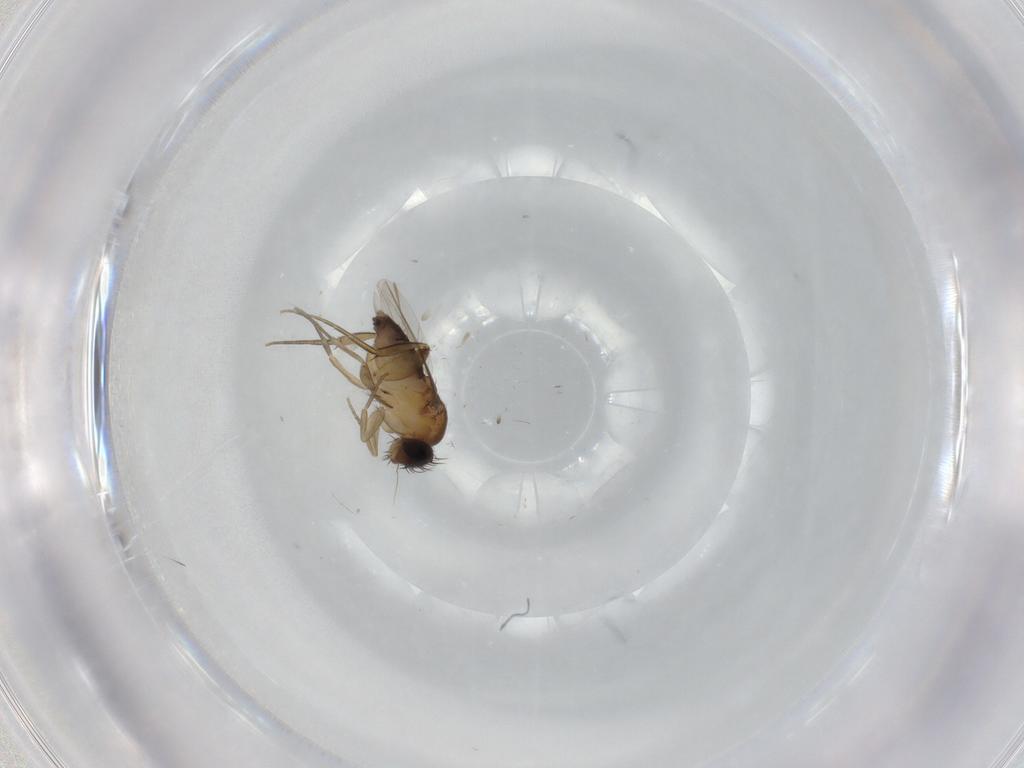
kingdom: Animalia
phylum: Arthropoda
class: Insecta
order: Diptera
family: Phoridae
